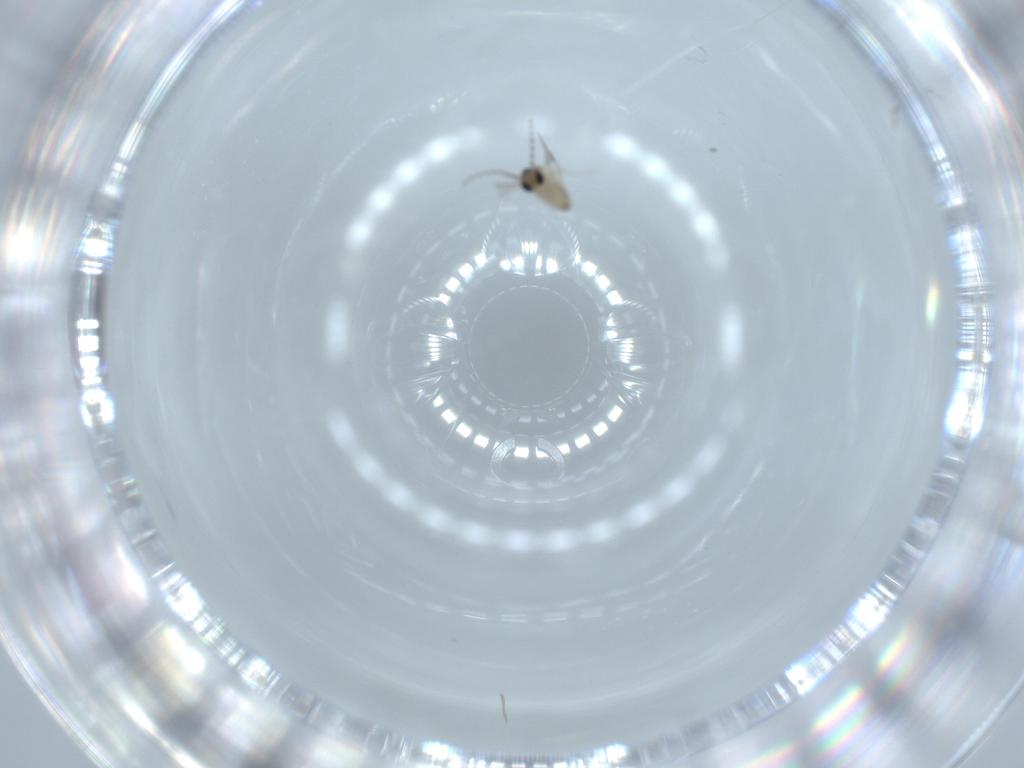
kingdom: Animalia
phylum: Arthropoda
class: Insecta
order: Diptera
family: Cecidomyiidae
